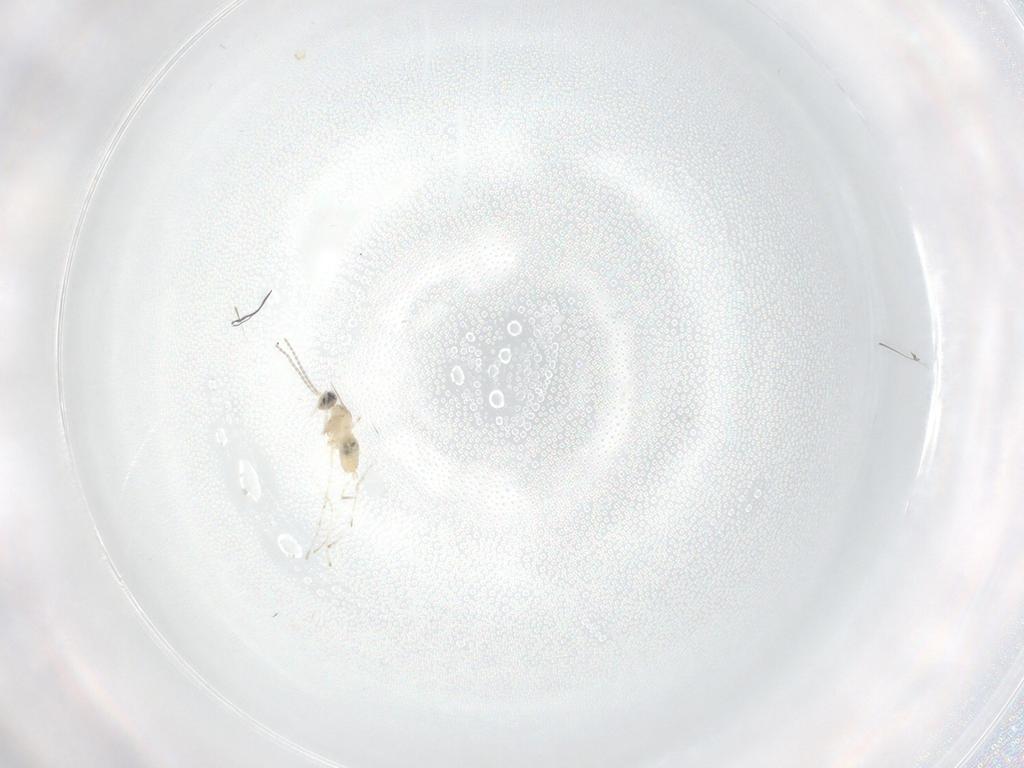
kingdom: Animalia
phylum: Arthropoda
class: Insecta
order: Diptera
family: Cecidomyiidae
